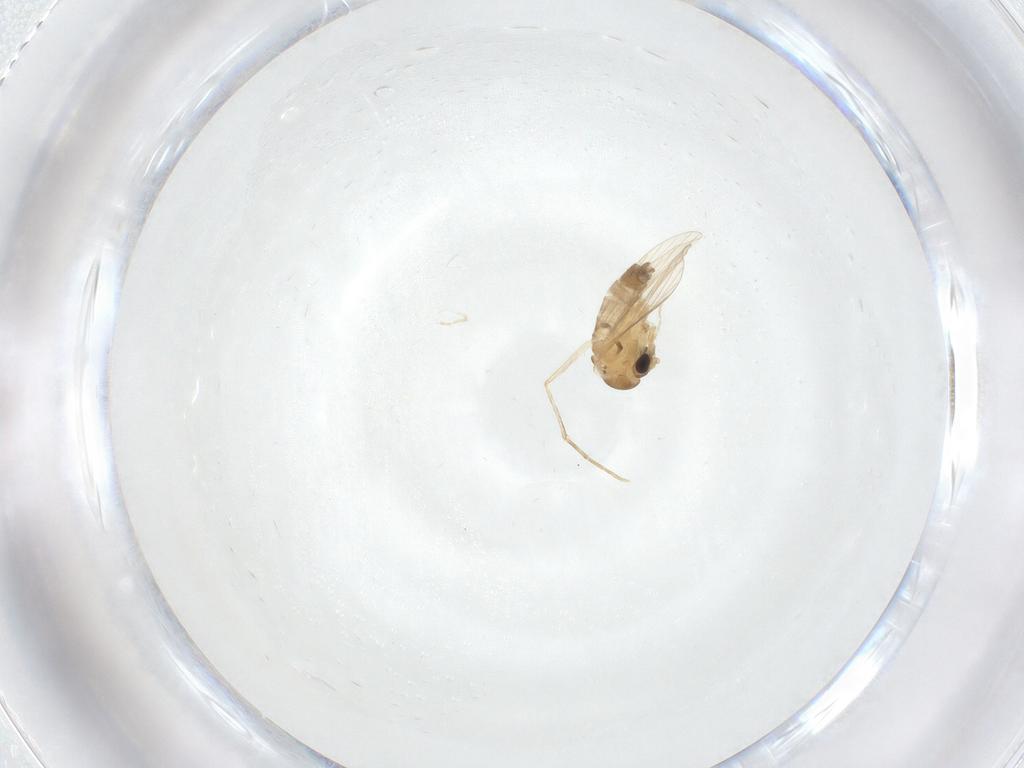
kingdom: Animalia
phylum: Arthropoda
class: Insecta
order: Diptera
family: Psychodidae
